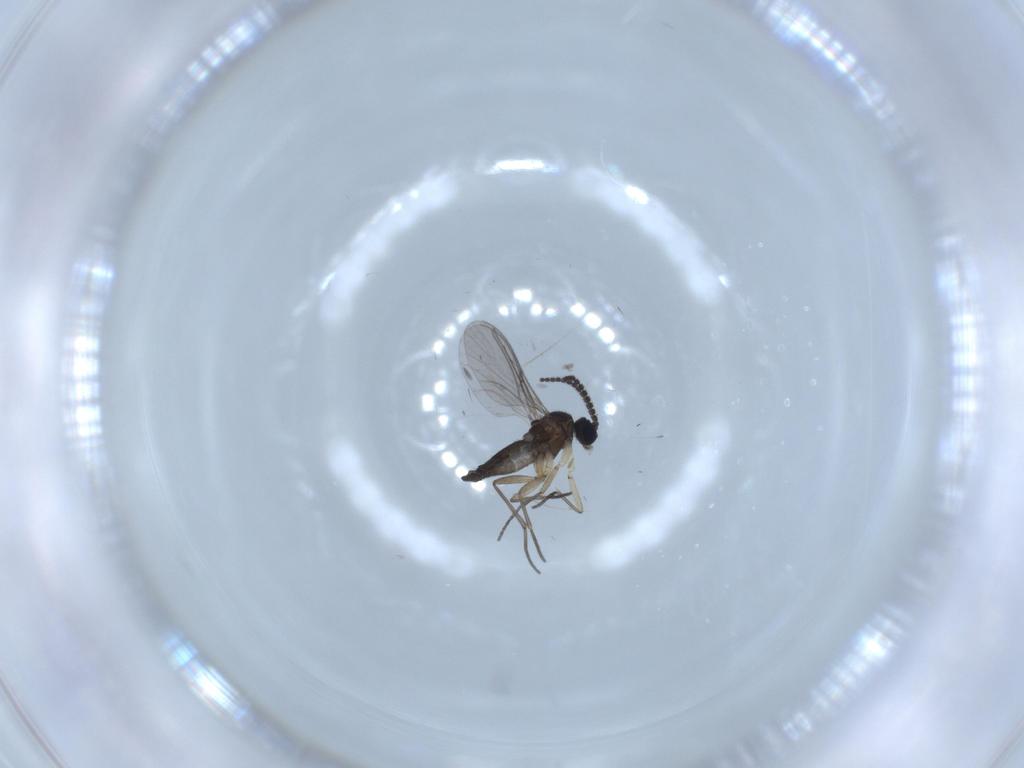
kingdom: Animalia
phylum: Arthropoda
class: Insecta
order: Diptera
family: Sciaridae
